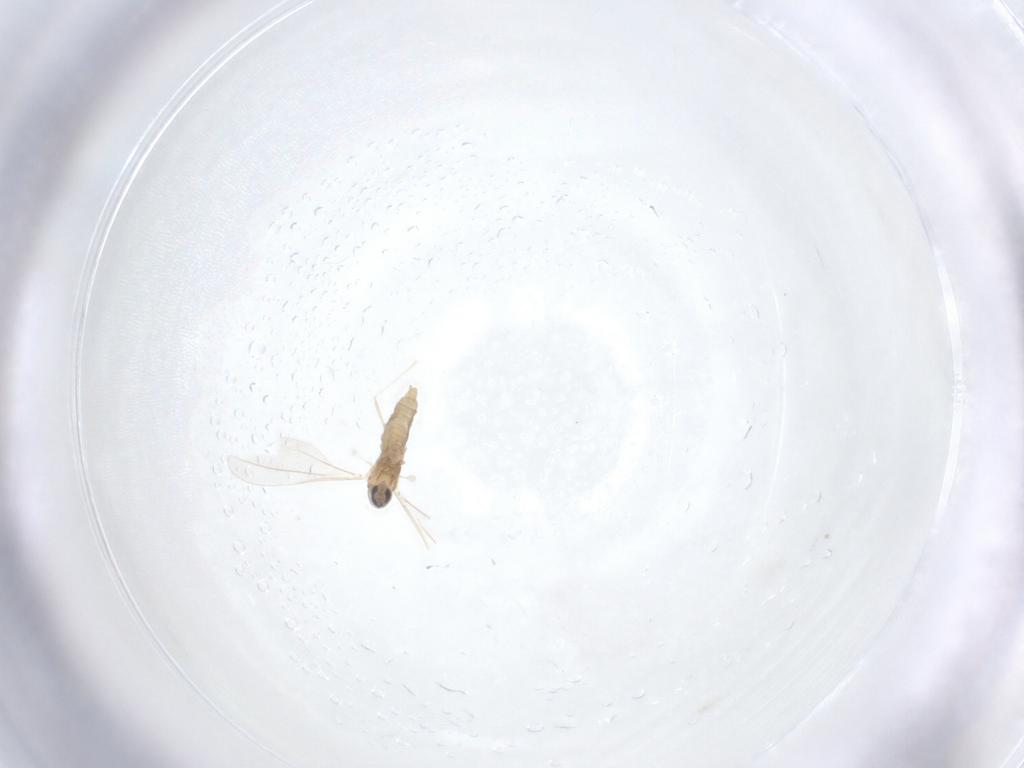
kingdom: Animalia
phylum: Arthropoda
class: Insecta
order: Diptera
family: Cecidomyiidae
